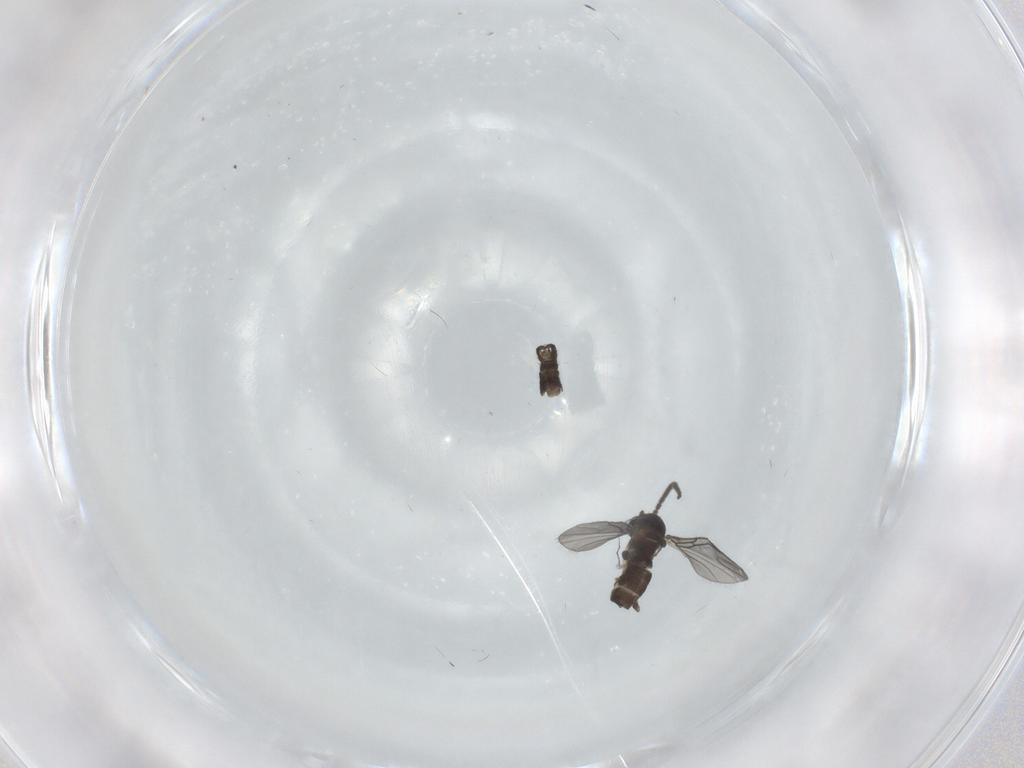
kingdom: Animalia
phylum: Arthropoda
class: Insecta
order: Diptera
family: Sciaridae
